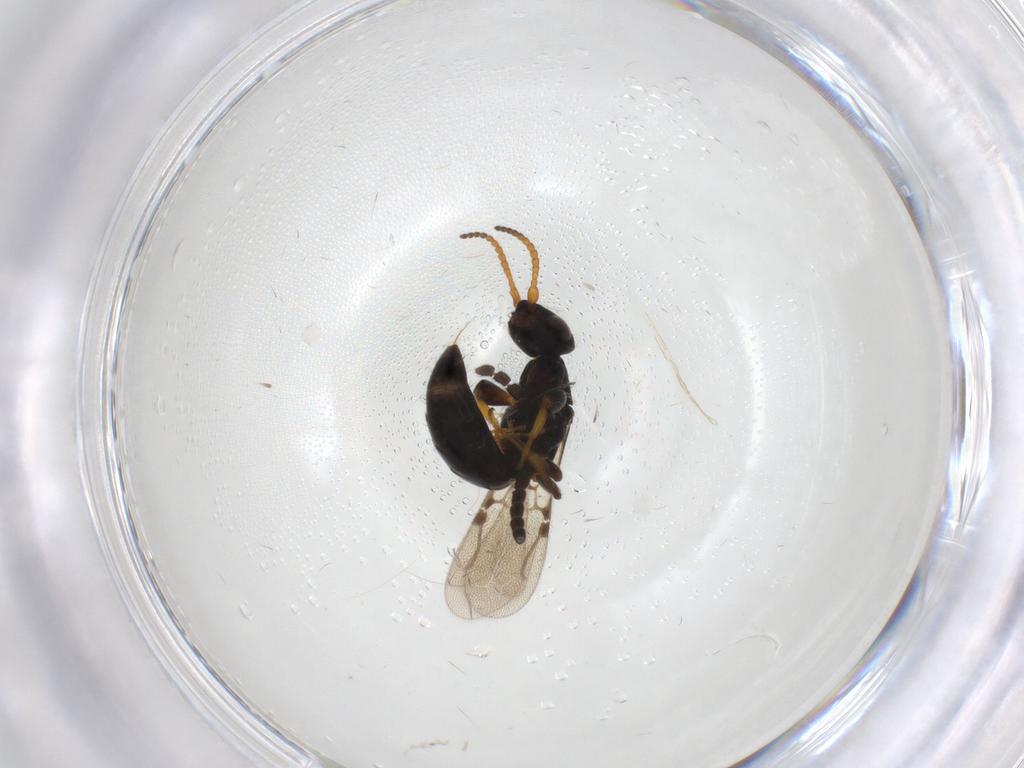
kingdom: Animalia
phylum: Arthropoda
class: Insecta
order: Hymenoptera
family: Bethylidae
